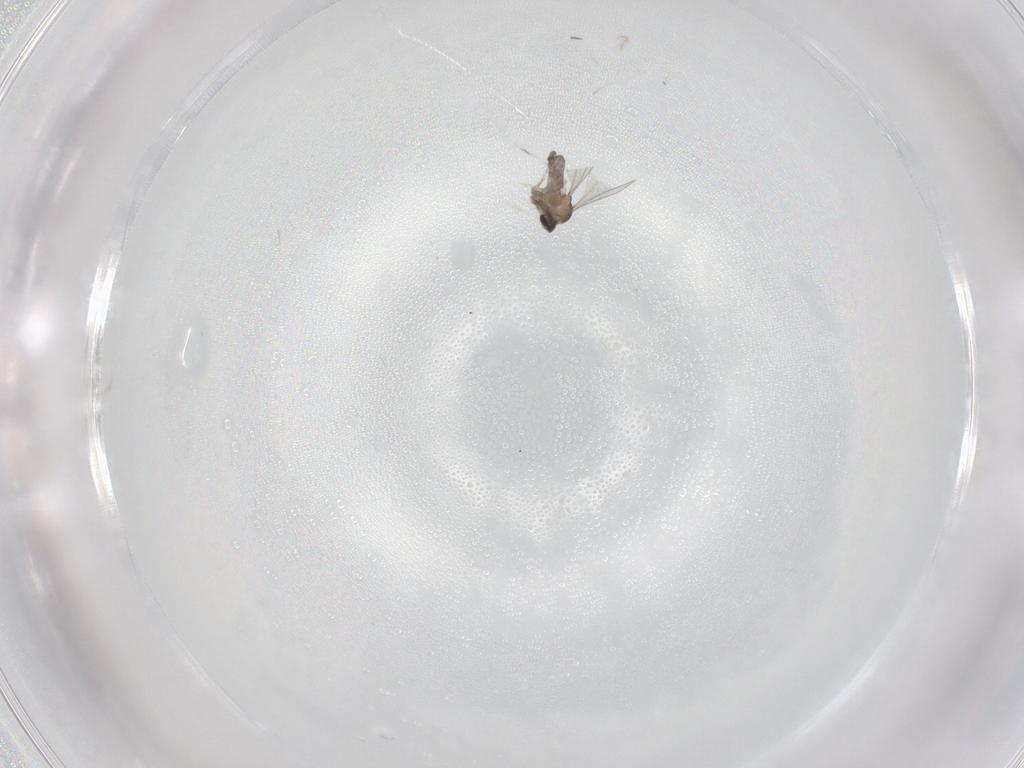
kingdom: Animalia
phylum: Arthropoda
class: Insecta
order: Diptera
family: Cecidomyiidae
